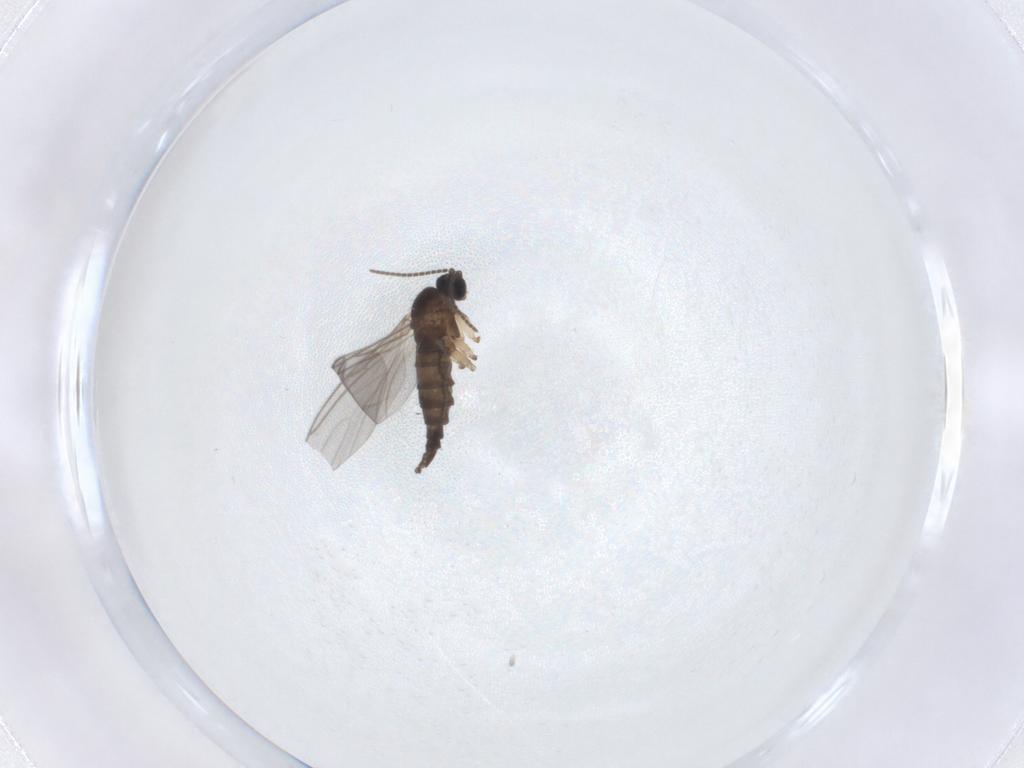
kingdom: Animalia
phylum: Arthropoda
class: Insecta
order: Diptera
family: Sciaridae
